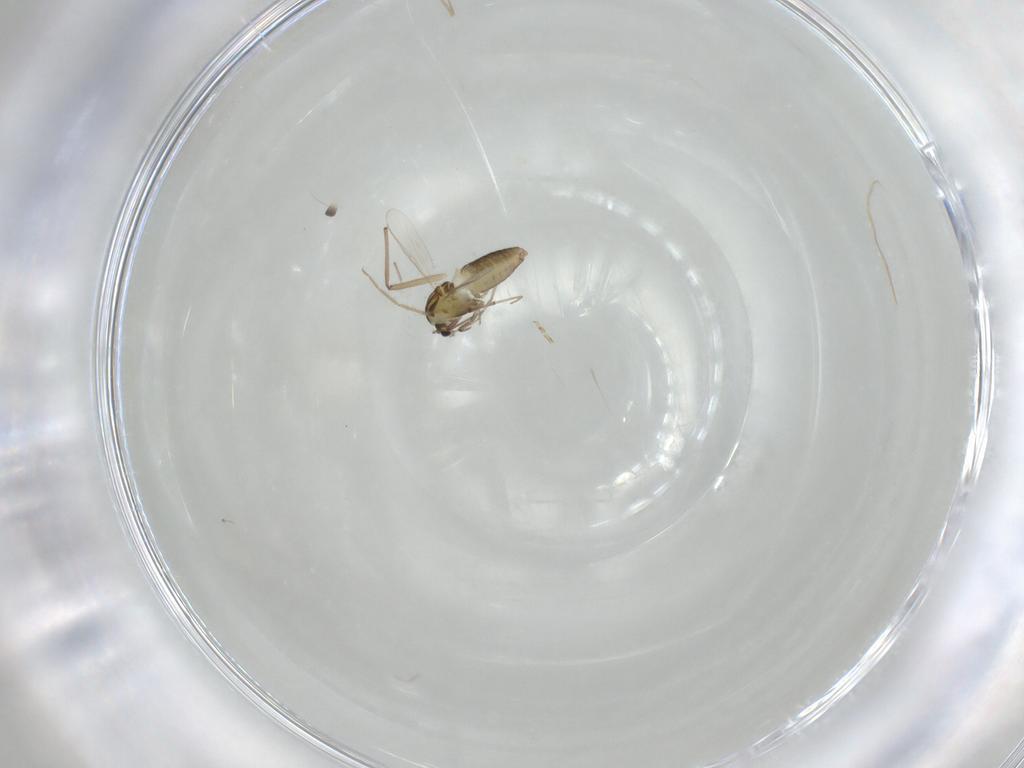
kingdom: Animalia
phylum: Arthropoda
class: Insecta
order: Diptera
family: Chironomidae
